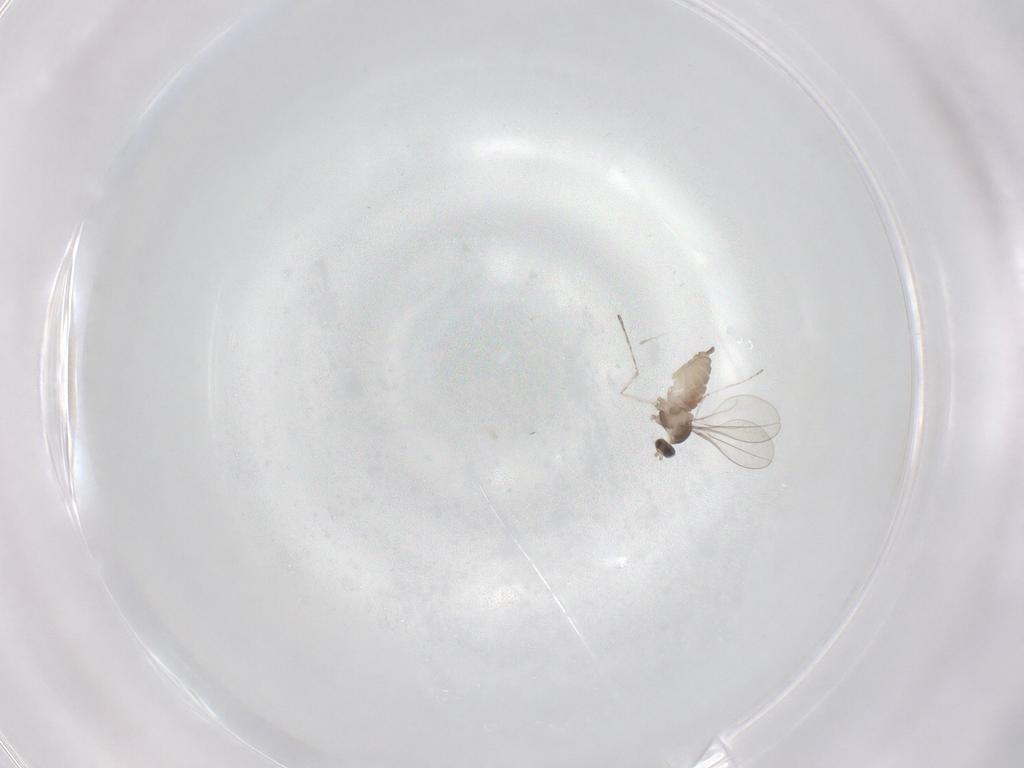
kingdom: Animalia
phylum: Arthropoda
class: Insecta
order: Diptera
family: Cecidomyiidae
